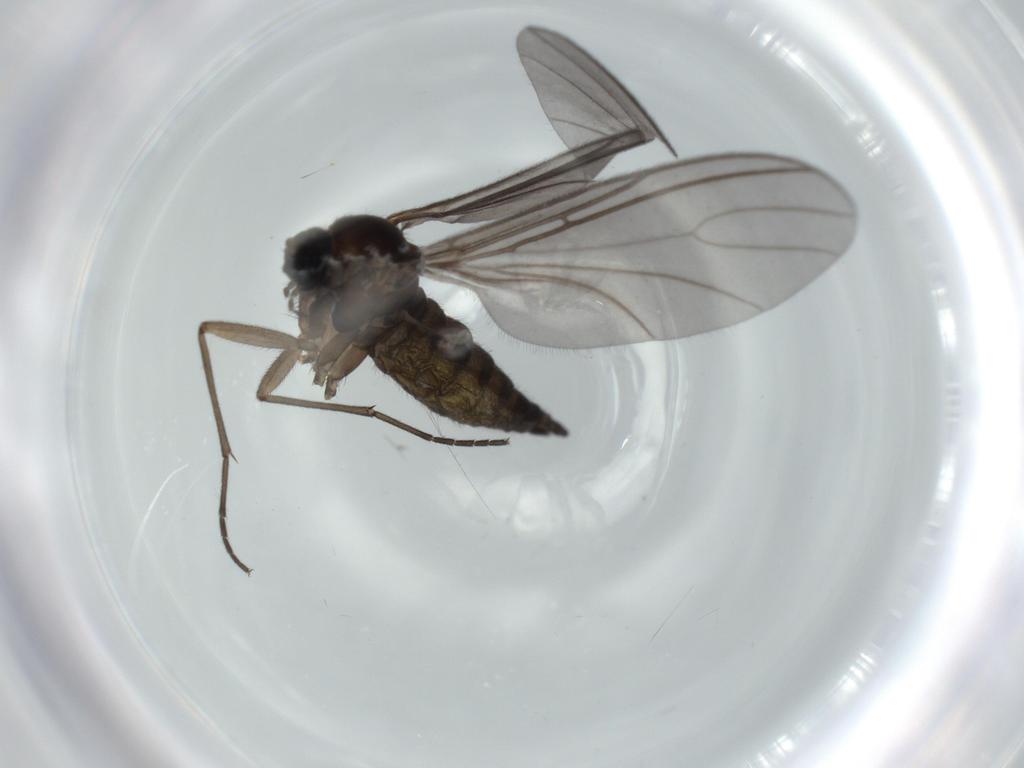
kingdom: Animalia
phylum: Arthropoda
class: Insecta
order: Diptera
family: Sciaridae
